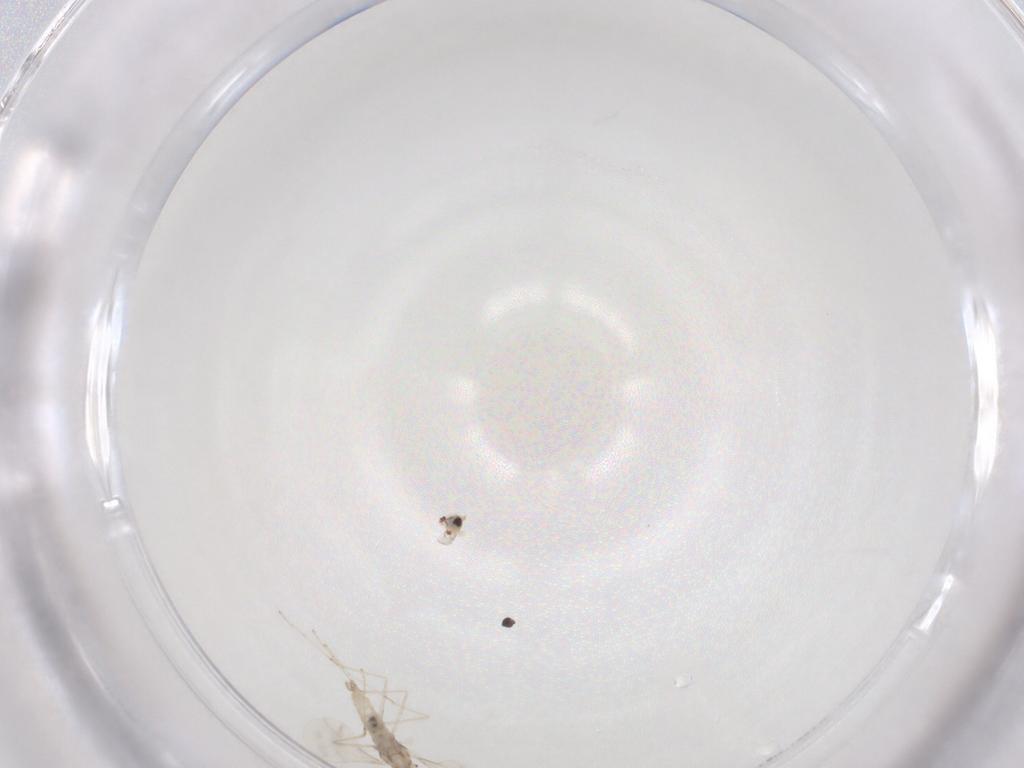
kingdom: Animalia
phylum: Arthropoda
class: Insecta
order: Diptera
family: Cecidomyiidae
